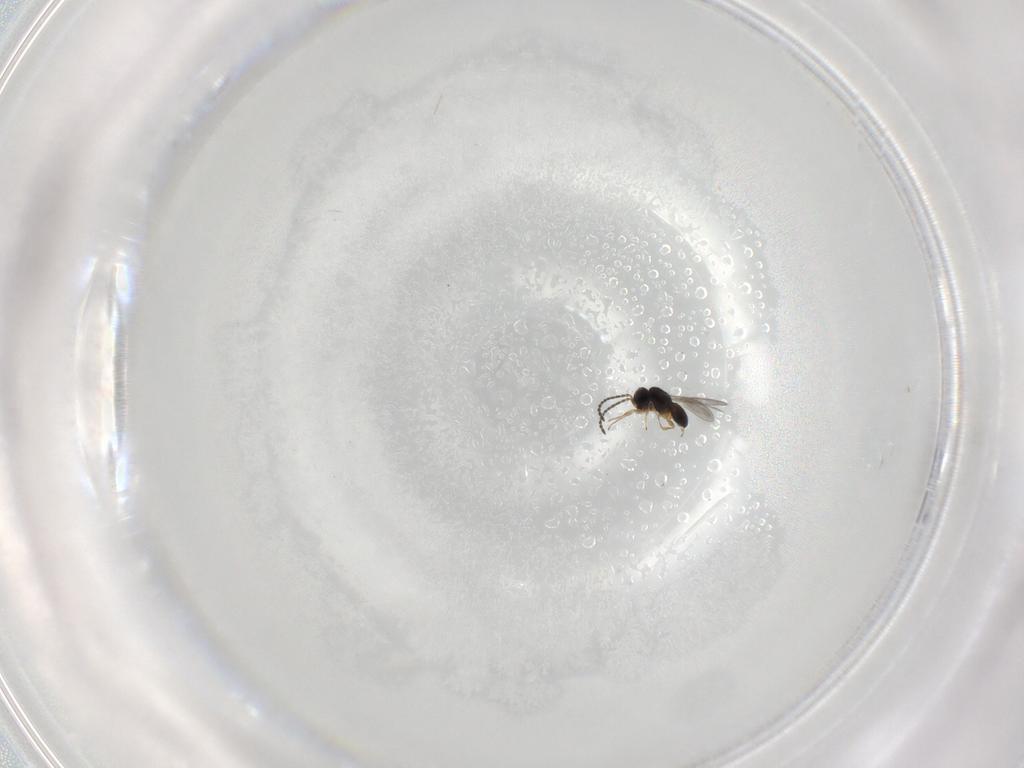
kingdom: Animalia
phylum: Arthropoda
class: Insecta
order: Hymenoptera
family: Scelionidae
